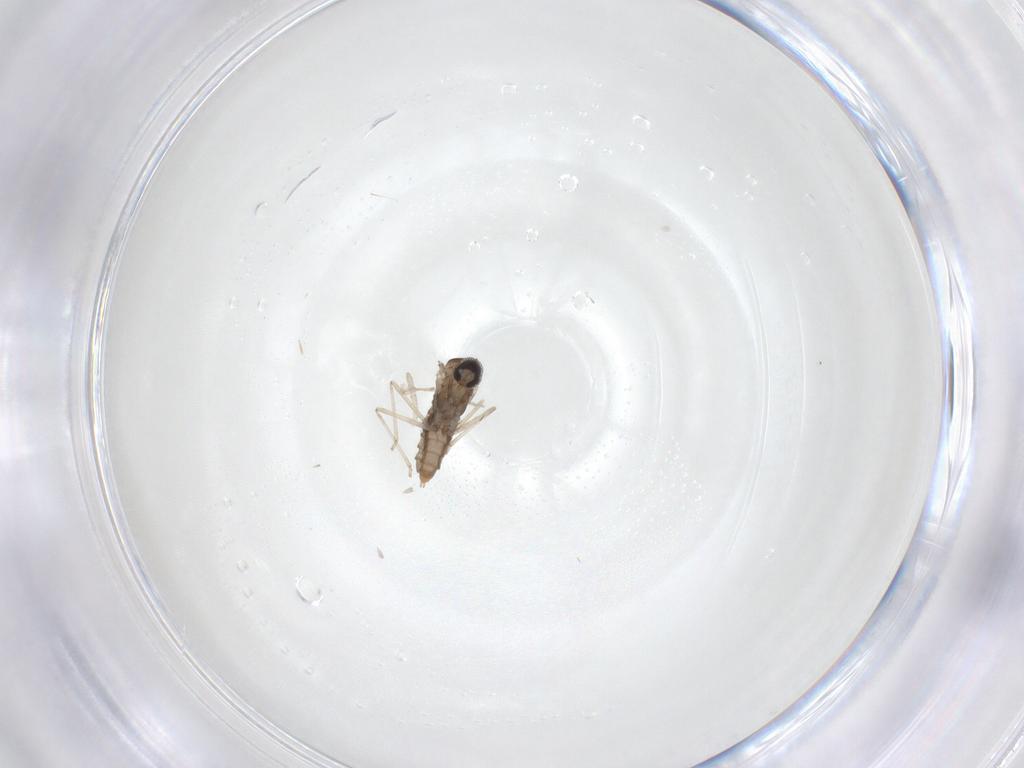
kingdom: Animalia
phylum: Arthropoda
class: Insecta
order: Diptera
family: Cecidomyiidae
